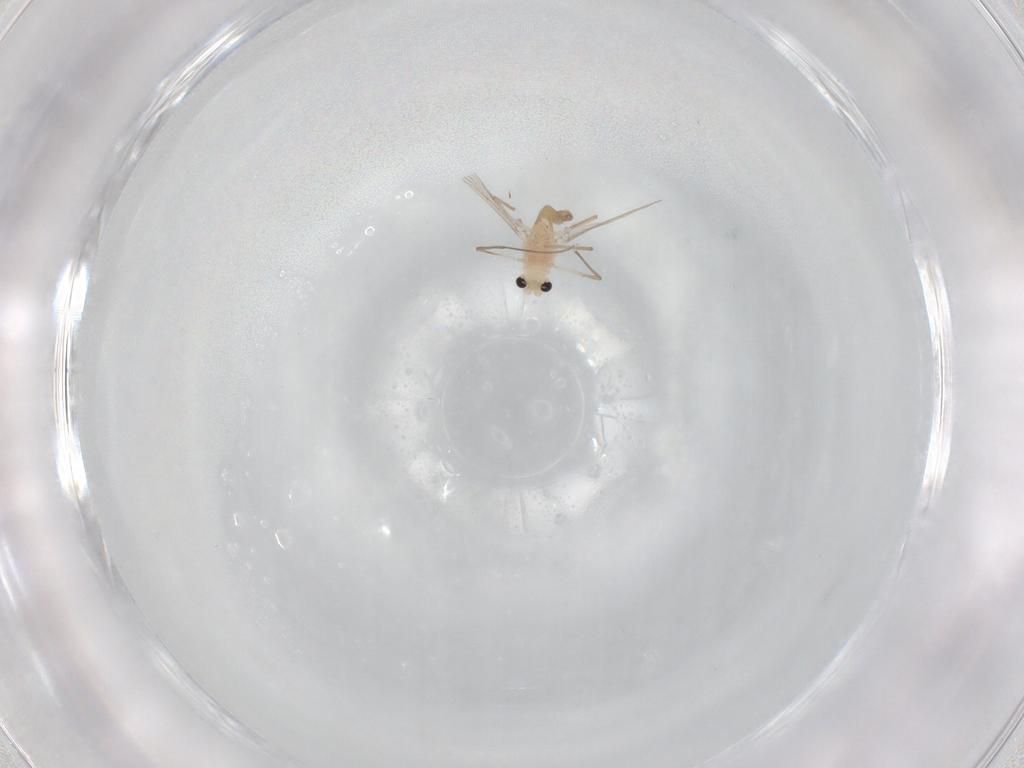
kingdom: Animalia
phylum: Arthropoda
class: Insecta
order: Diptera
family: Chironomidae
